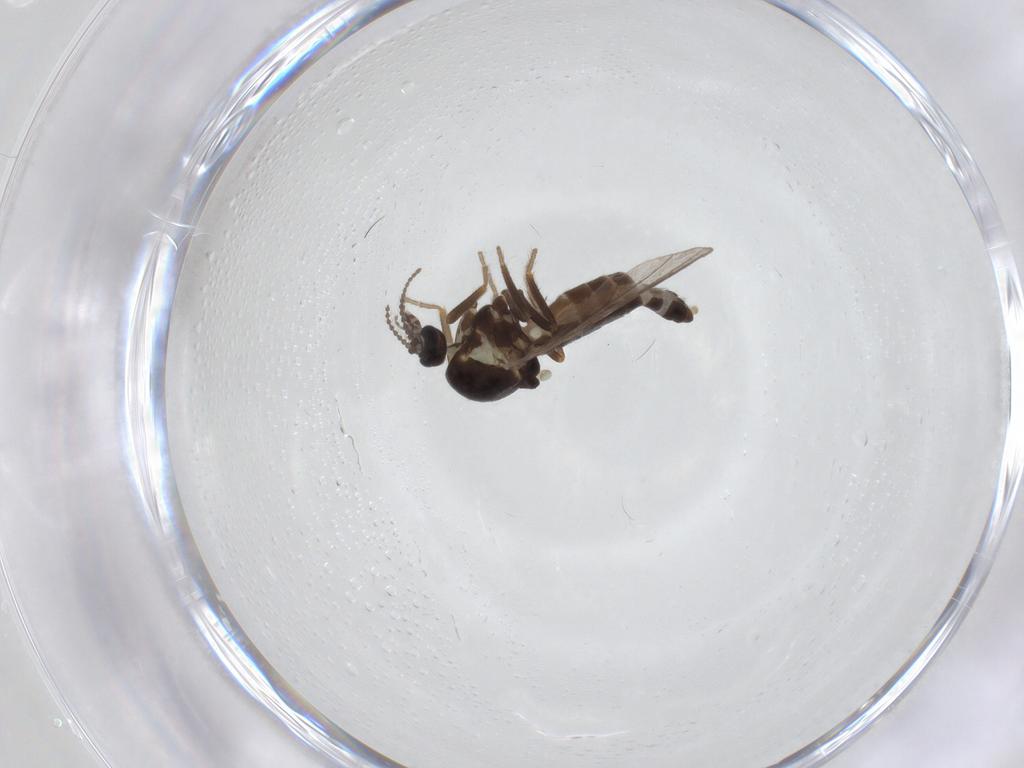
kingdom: Animalia
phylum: Arthropoda
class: Insecta
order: Diptera
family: Ceratopogonidae
